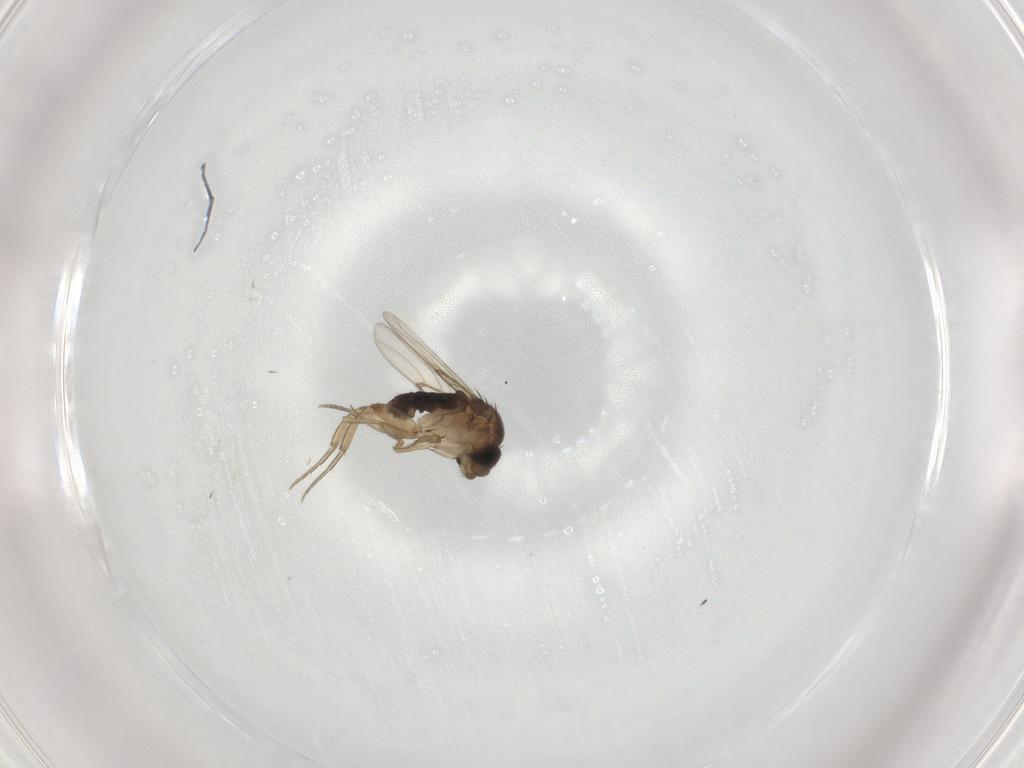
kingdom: Animalia
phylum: Arthropoda
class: Insecta
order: Diptera
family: Phoridae
